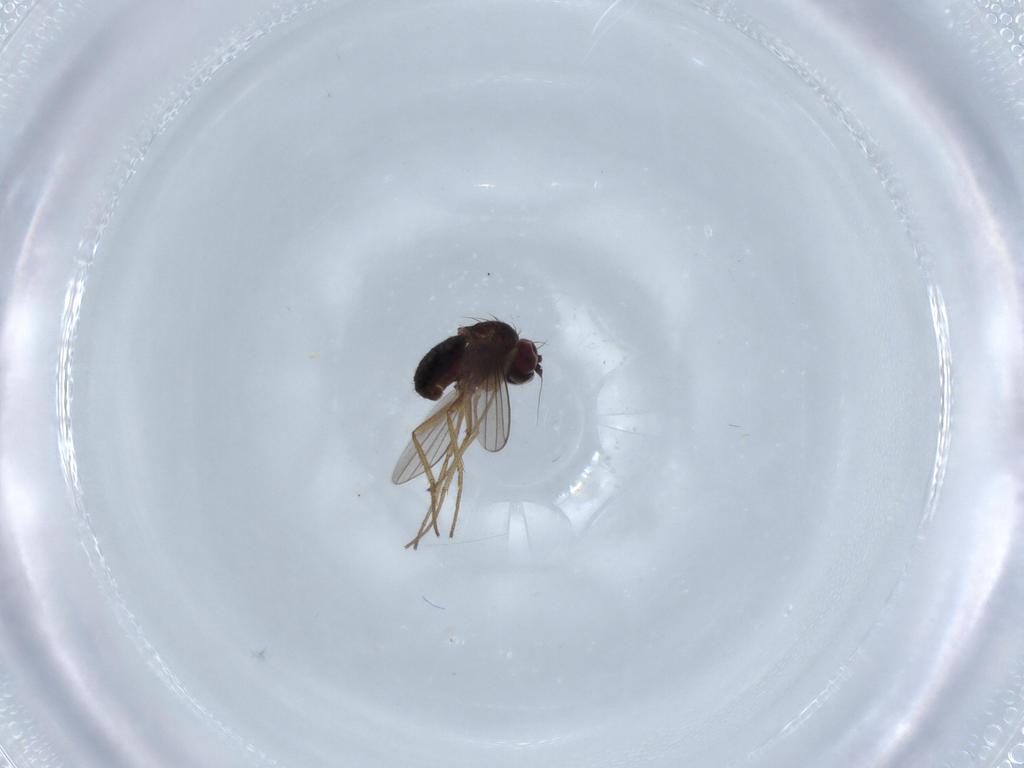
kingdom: Animalia
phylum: Arthropoda
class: Insecta
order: Diptera
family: Dolichopodidae
